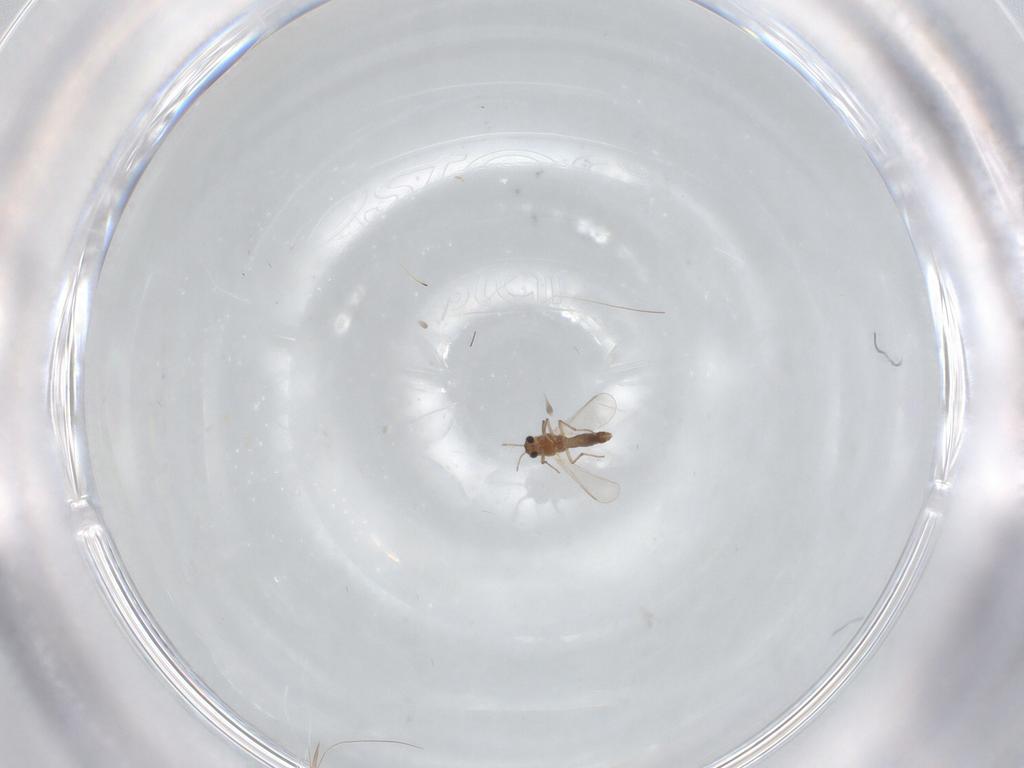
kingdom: Animalia
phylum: Arthropoda
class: Insecta
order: Diptera
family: Chironomidae
